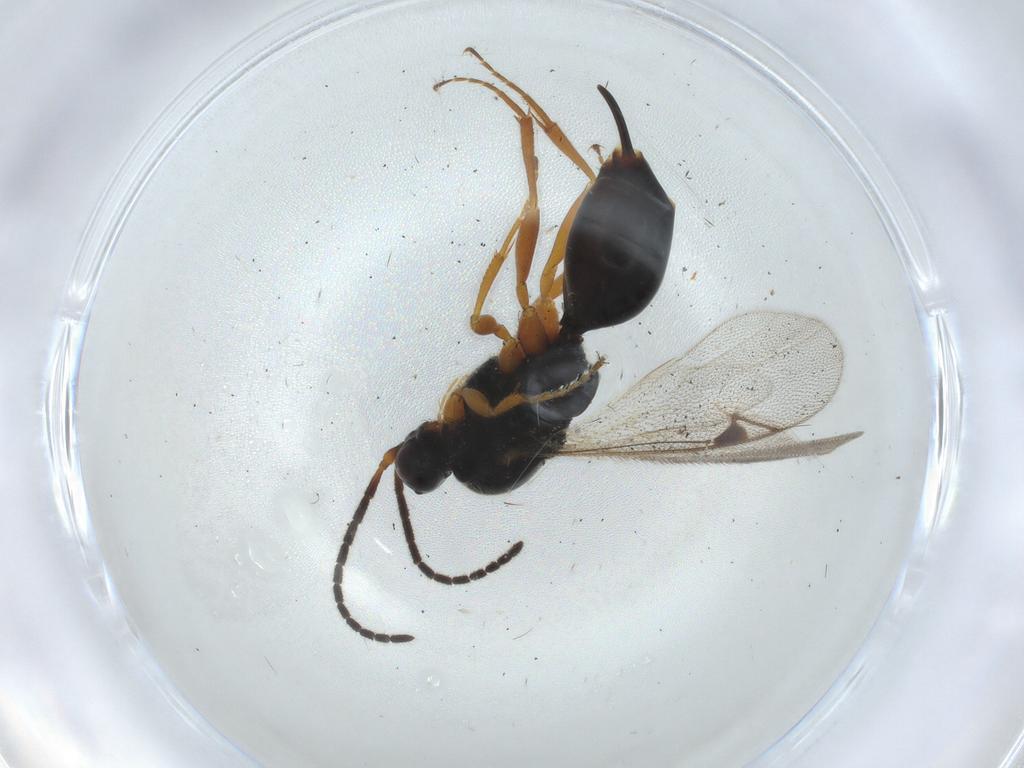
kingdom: Animalia
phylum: Arthropoda
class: Insecta
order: Hymenoptera
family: Proctotrupidae
